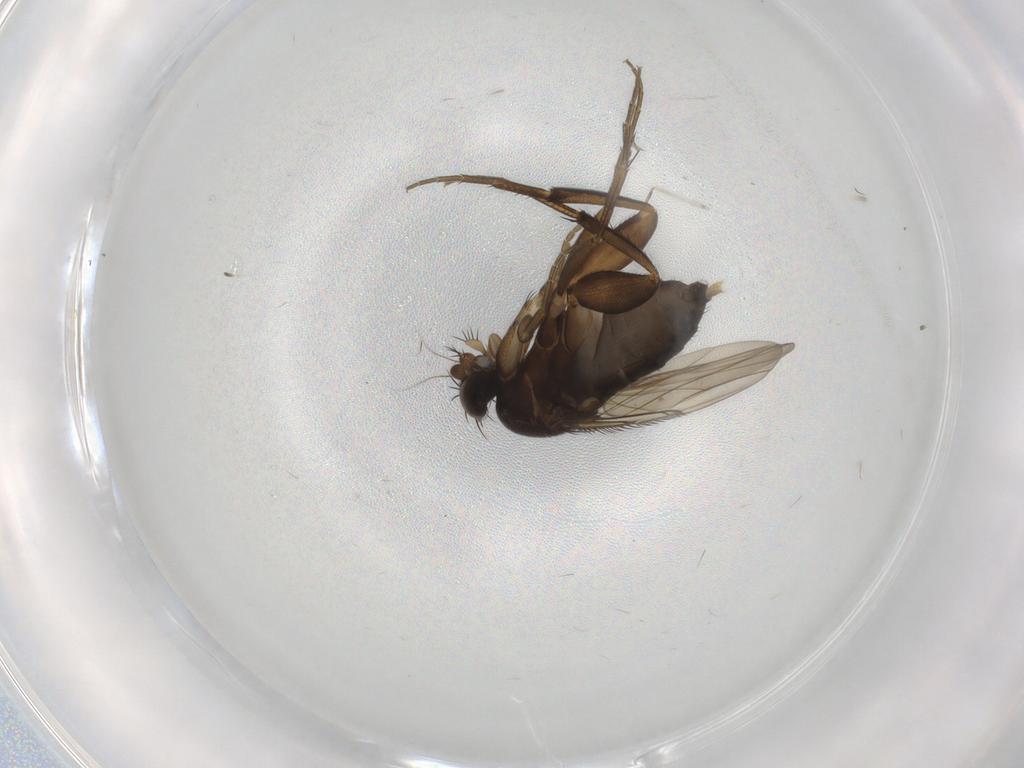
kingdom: Animalia
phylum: Arthropoda
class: Insecta
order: Diptera
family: Phoridae
